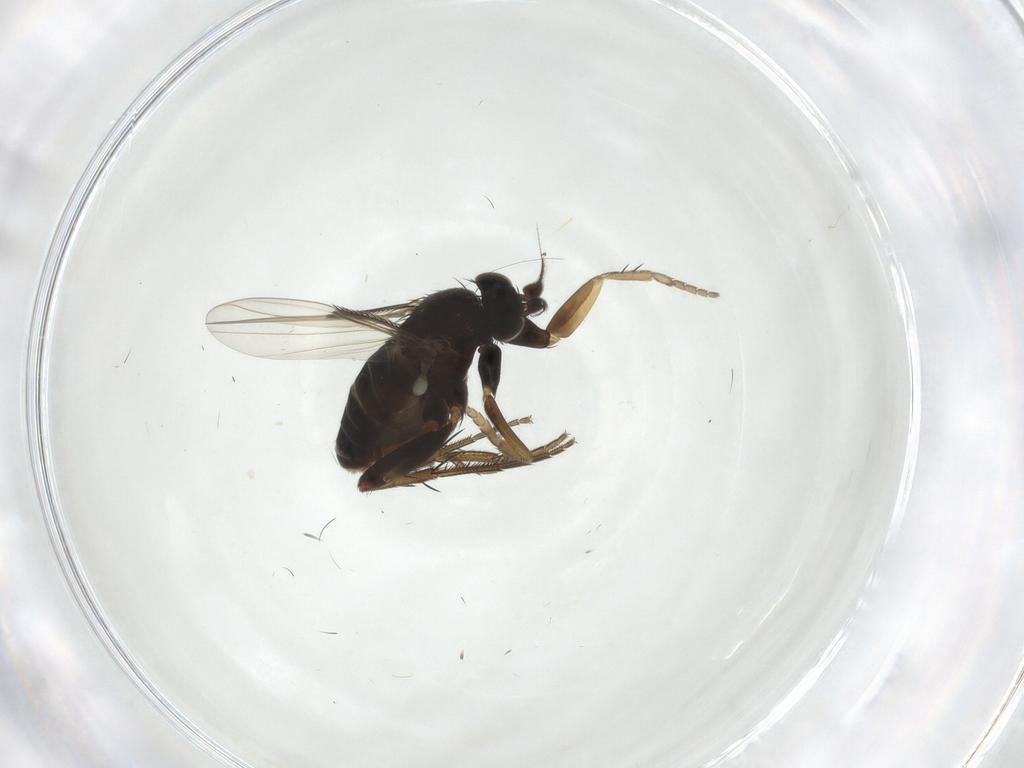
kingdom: Animalia
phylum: Arthropoda
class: Insecta
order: Diptera
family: Phoridae
